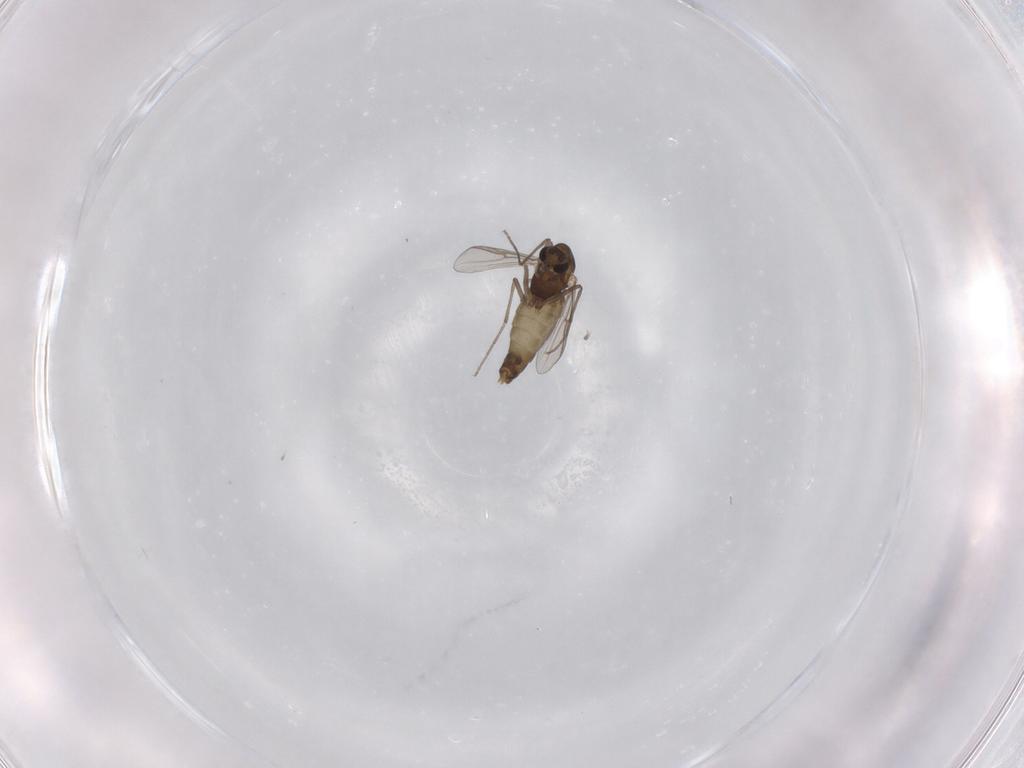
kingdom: Animalia
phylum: Arthropoda
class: Insecta
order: Diptera
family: Chironomidae
